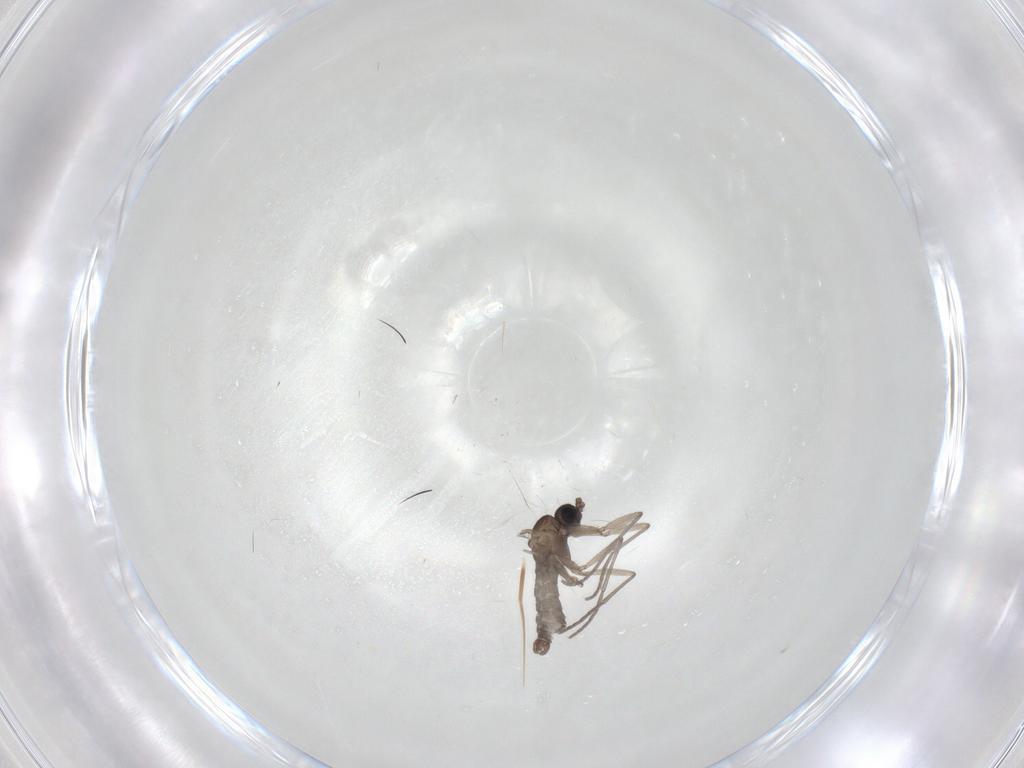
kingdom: Animalia
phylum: Arthropoda
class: Insecta
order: Diptera
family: Sciaridae
